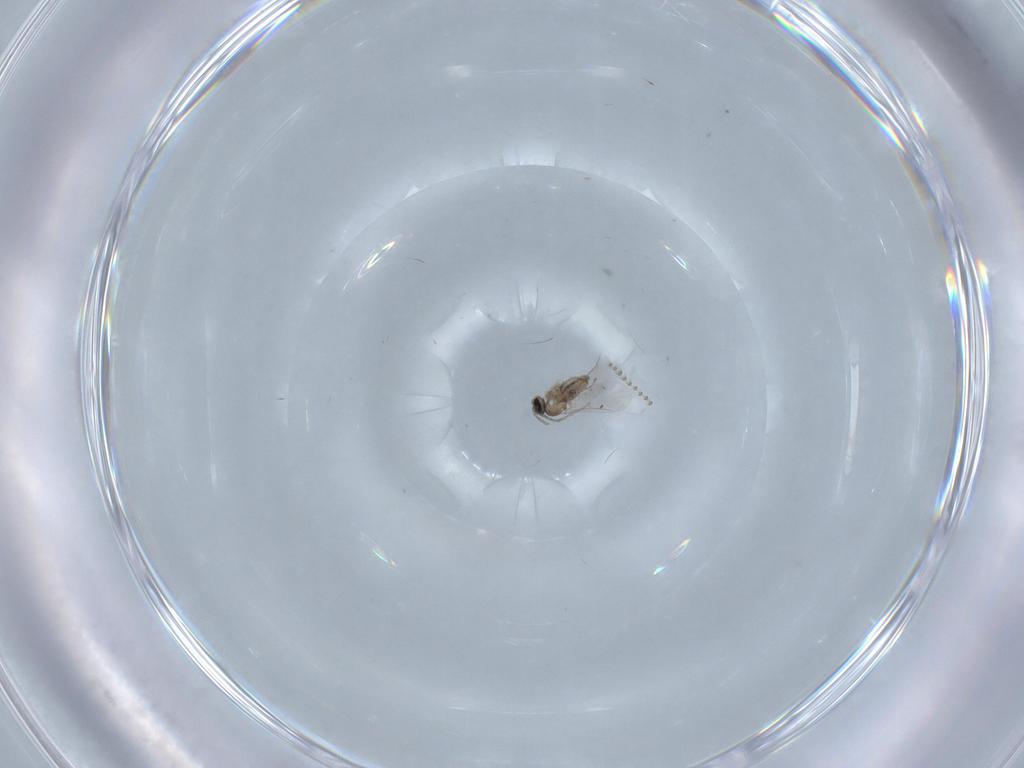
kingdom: Animalia
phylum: Arthropoda
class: Insecta
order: Diptera
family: Psychodidae
